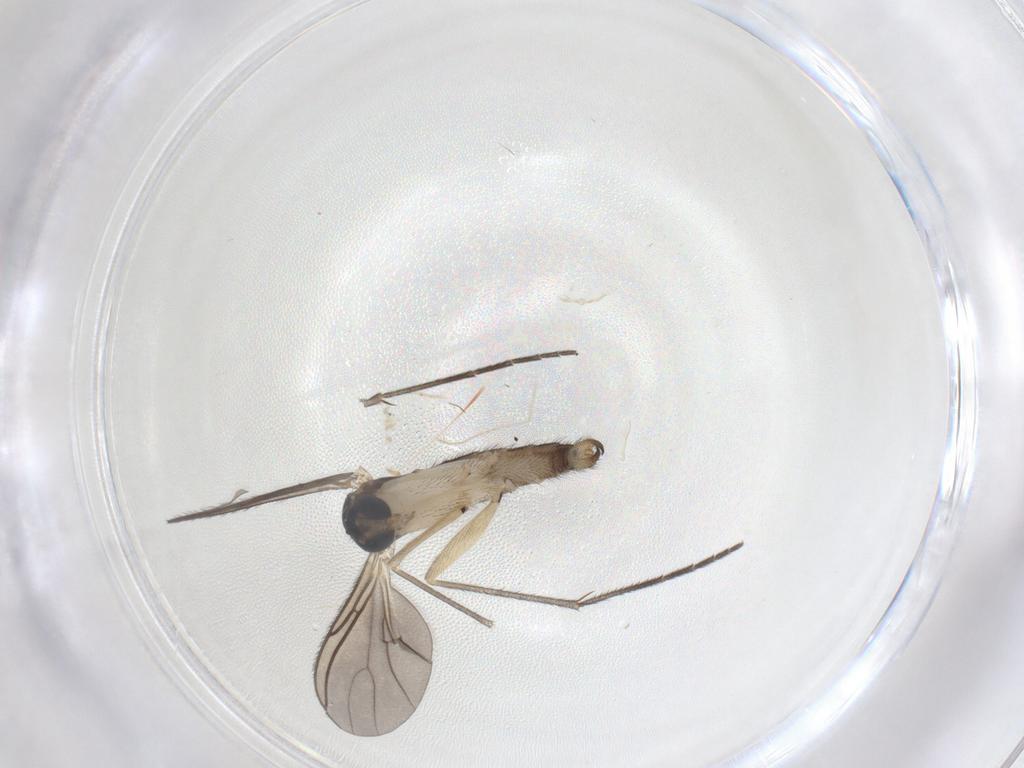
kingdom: Animalia
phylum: Arthropoda
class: Insecta
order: Diptera
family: Sciaridae
